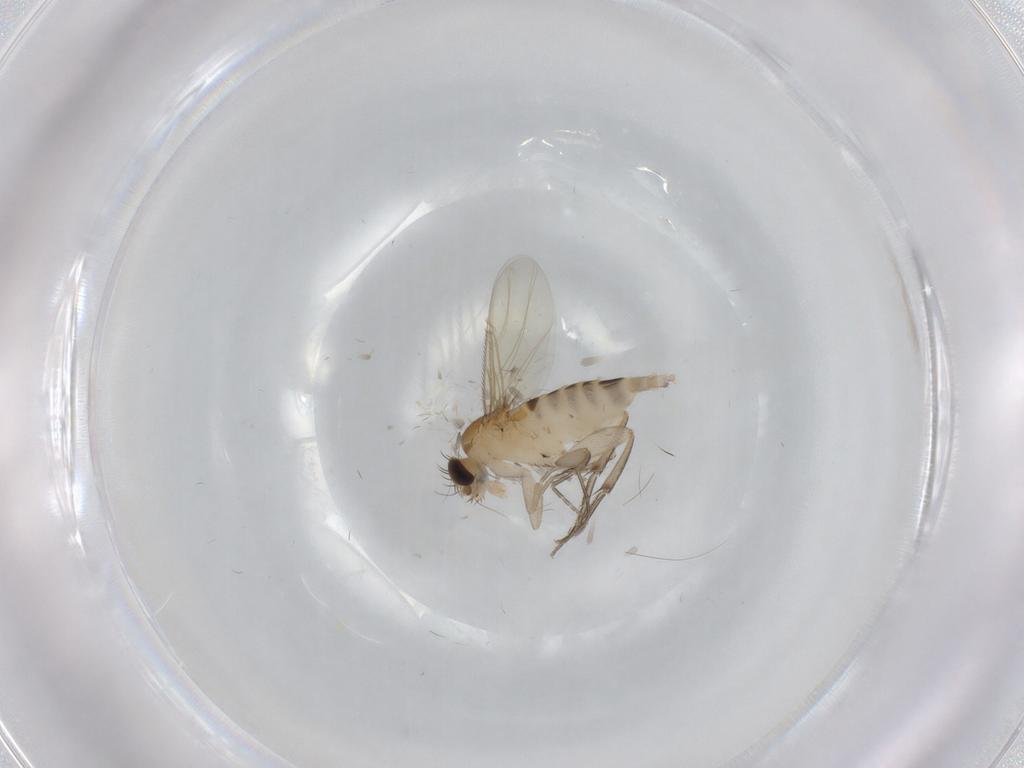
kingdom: Animalia
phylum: Arthropoda
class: Insecta
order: Diptera
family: Phoridae
